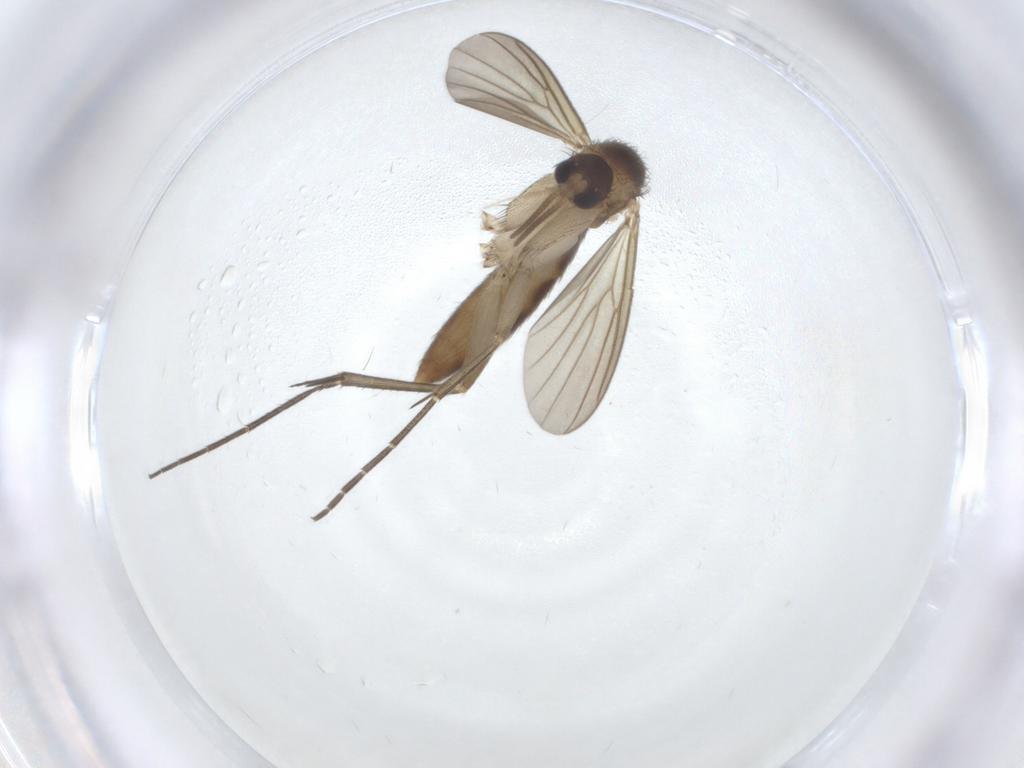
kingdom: Animalia
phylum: Arthropoda
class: Insecta
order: Diptera
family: Mycetophilidae
